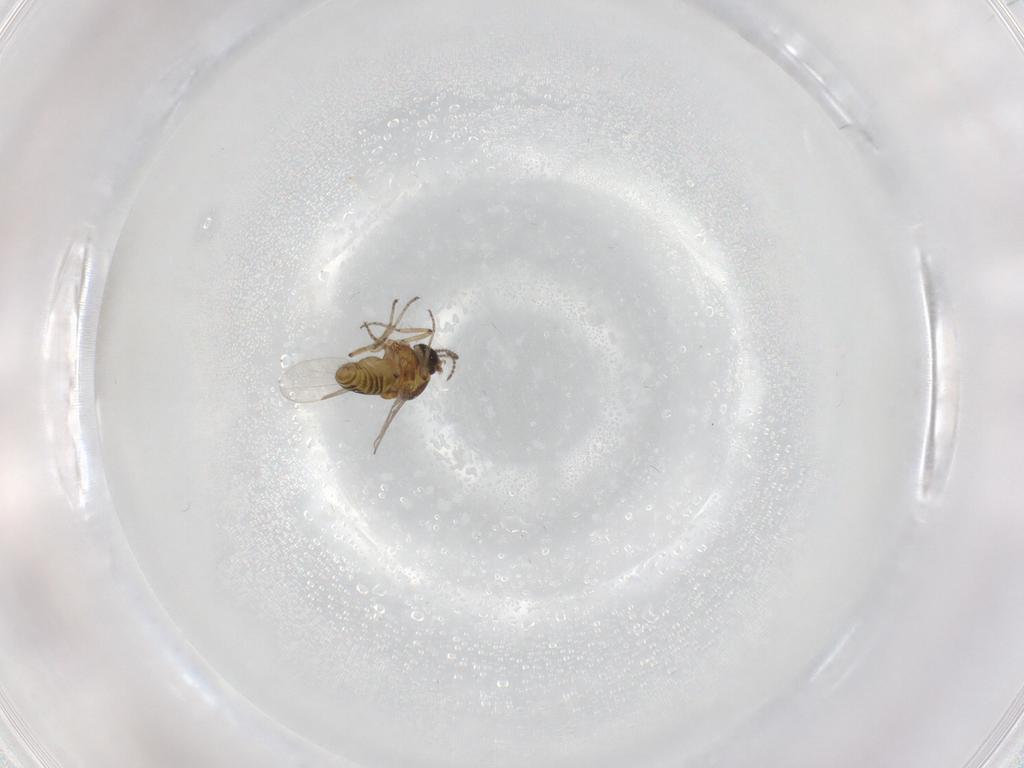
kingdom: Animalia
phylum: Arthropoda
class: Insecta
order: Diptera
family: Ceratopogonidae
